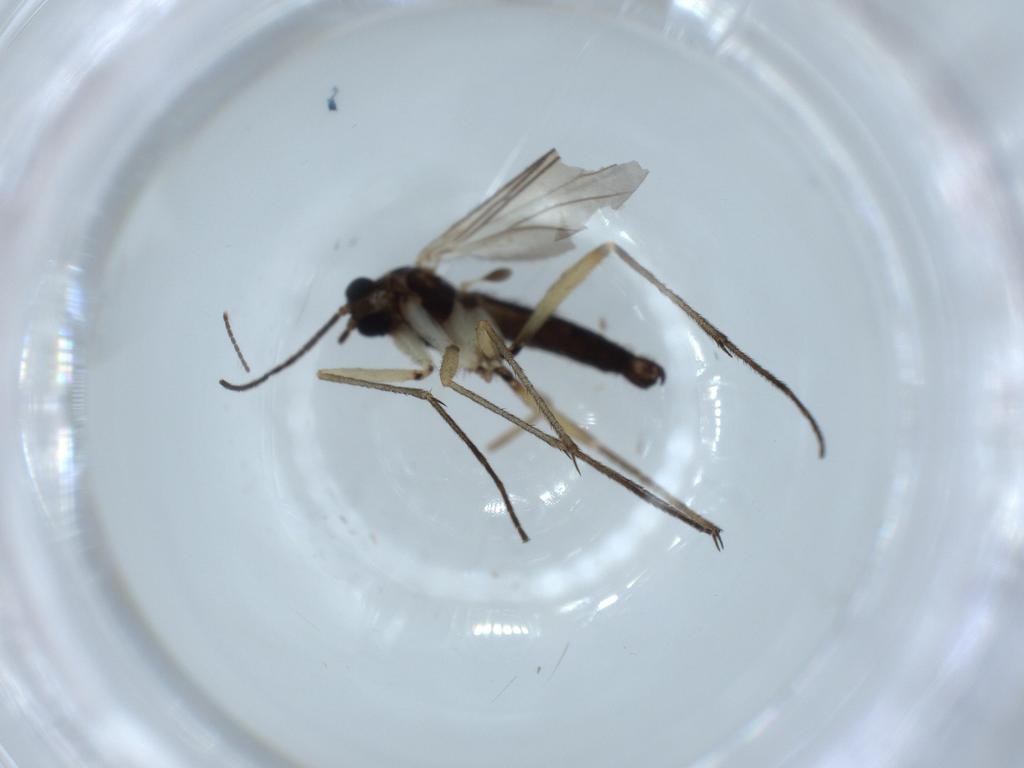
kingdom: Animalia
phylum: Arthropoda
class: Insecta
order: Diptera
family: Sciaridae
